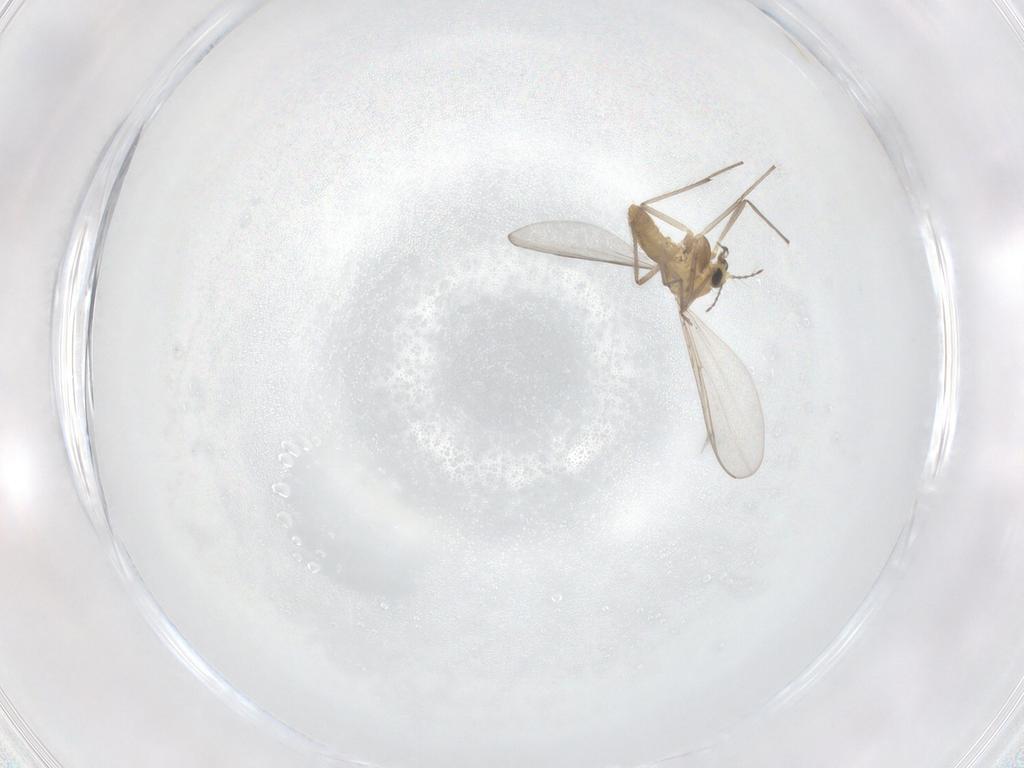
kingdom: Animalia
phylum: Arthropoda
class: Insecta
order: Diptera
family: Chironomidae
